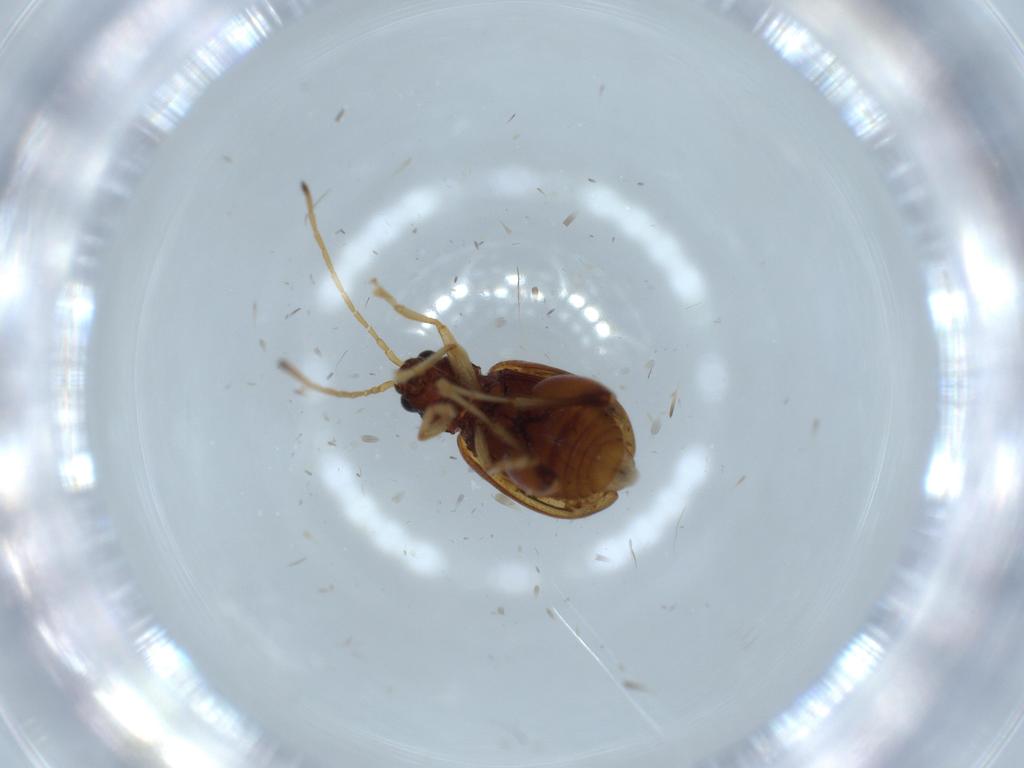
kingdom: Animalia
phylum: Arthropoda
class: Insecta
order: Coleoptera
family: Chrysomelidae
